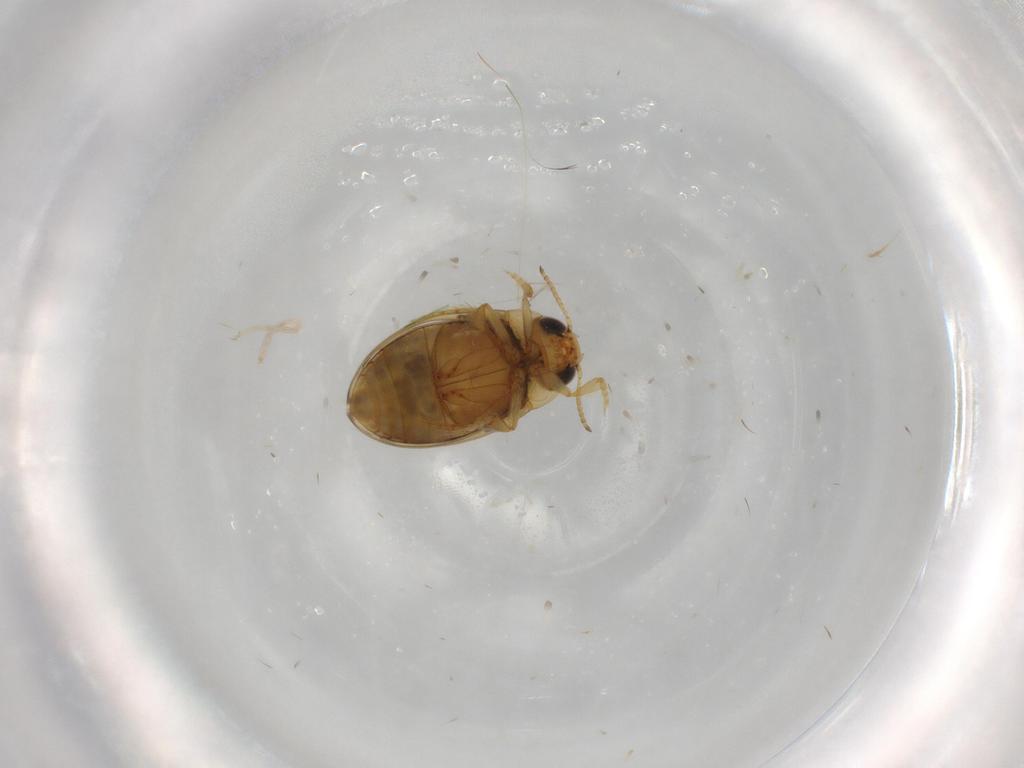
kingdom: Animalia
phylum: Arthropoda
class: Insecta
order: Coleoptera
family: Dytiscidae
